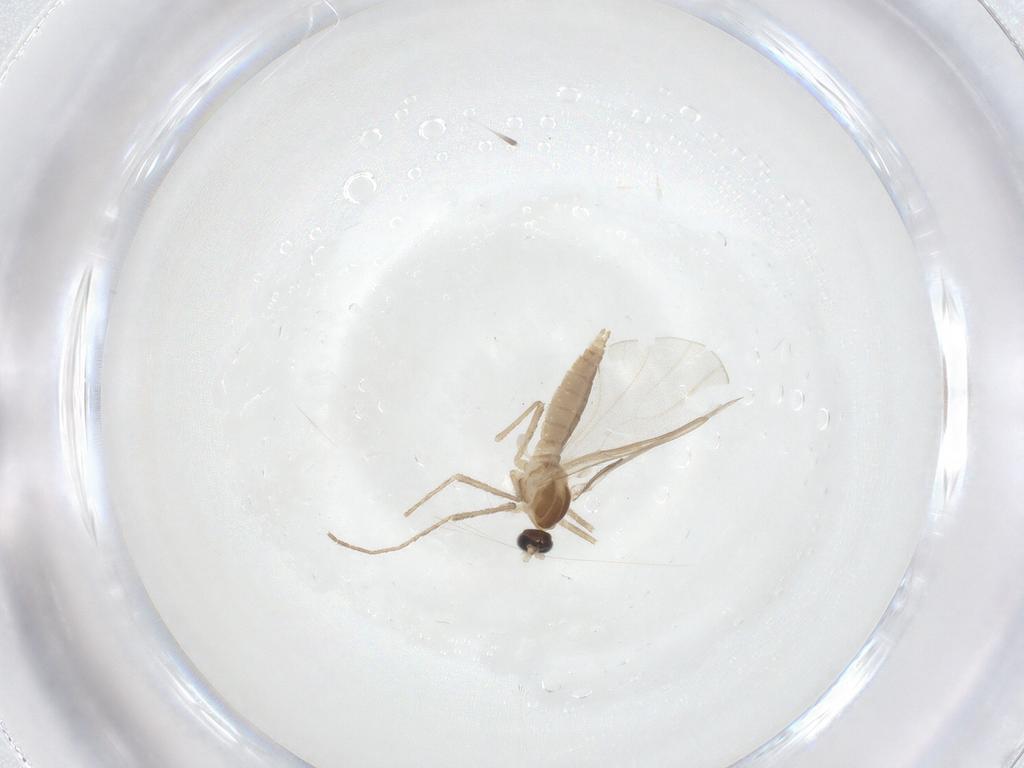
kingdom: Animalia
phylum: Arthropoda
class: Insecta
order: Diptera
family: Cecidomyiidae
